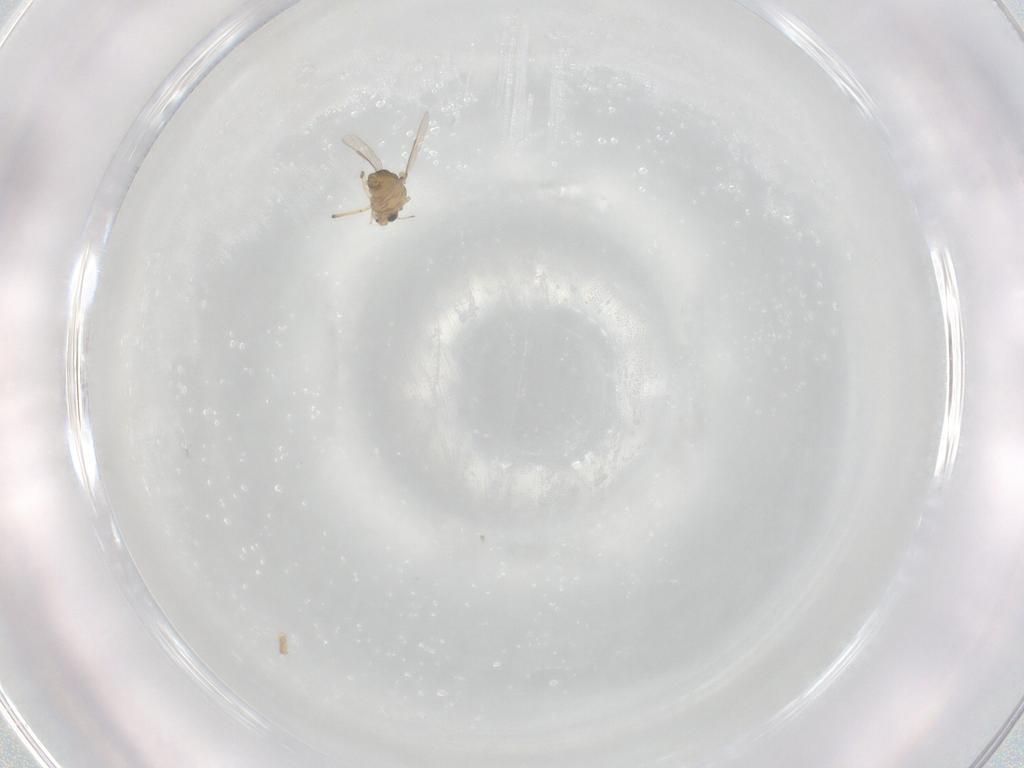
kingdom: Animalia
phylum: Arthropoda
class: Insecta
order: Diptera
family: Chironomidae
